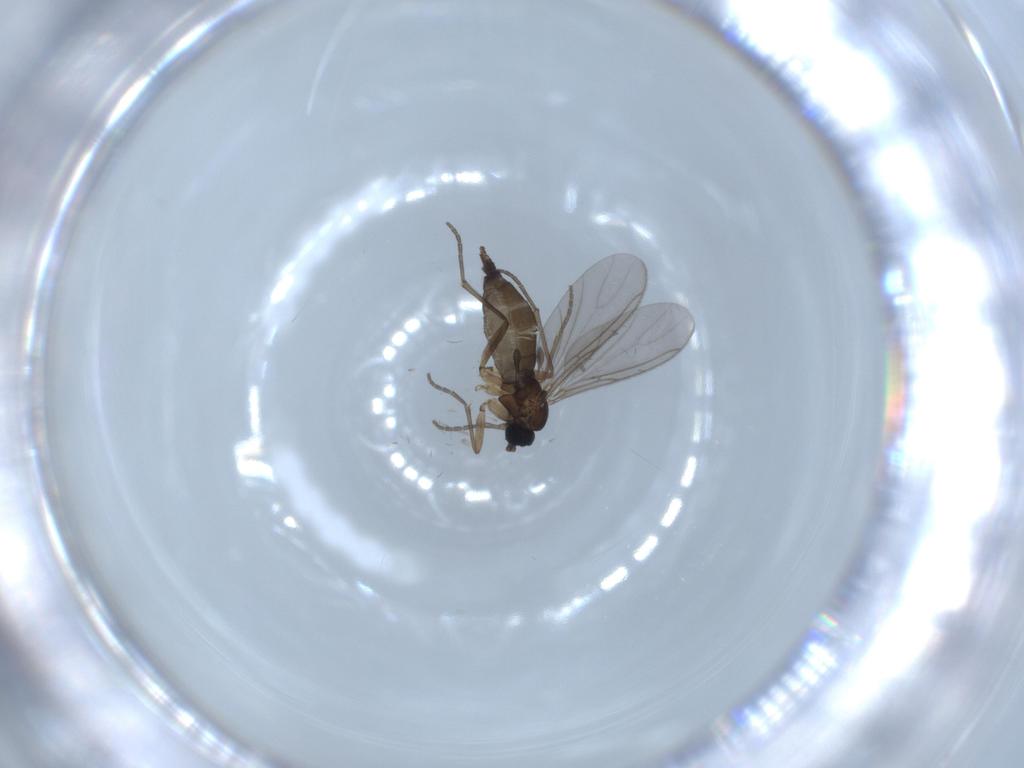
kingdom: Animalia
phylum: Arthropoda
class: Insecta
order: Diptera
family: Sciaridae
